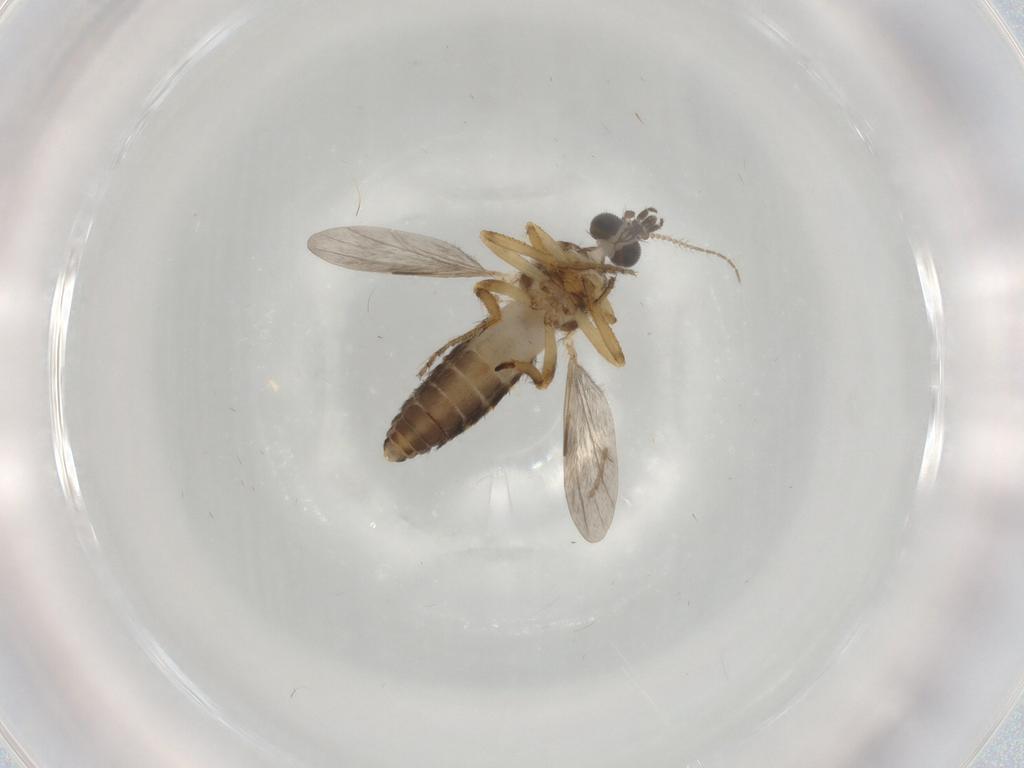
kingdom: Animalia
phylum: Arthropoda
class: Insecta
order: Diptera
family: Ceratopogonidae
